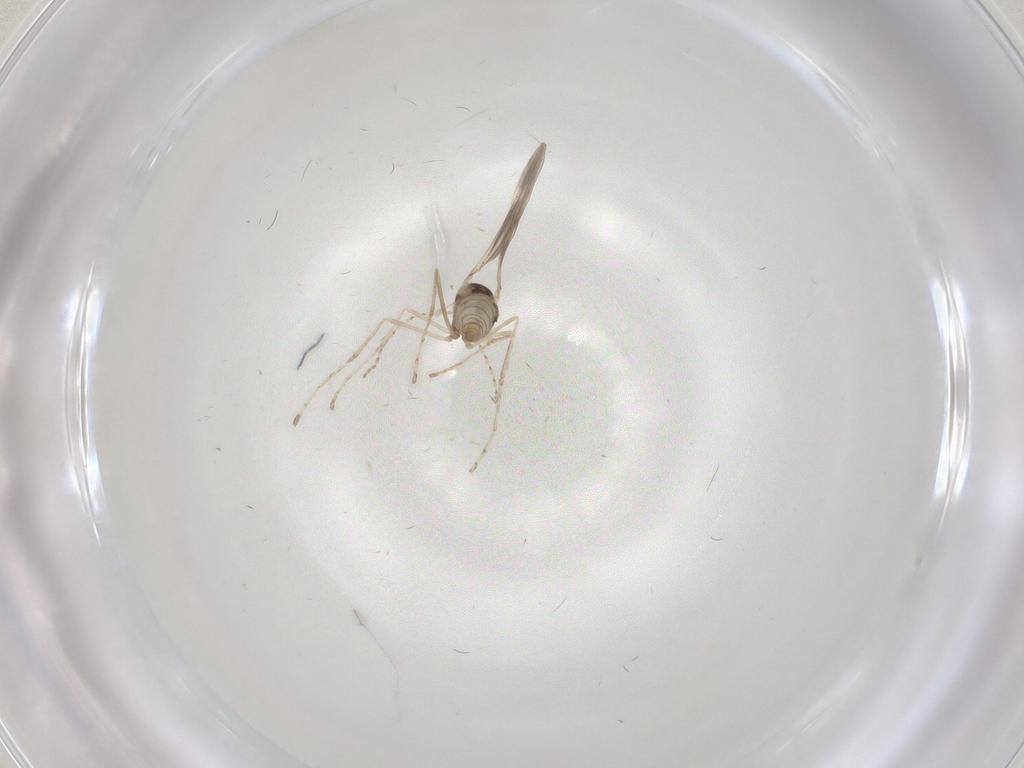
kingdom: Animalia
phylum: Arthropoda
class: Insecta
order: Diptera
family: Cecidomyiidae
